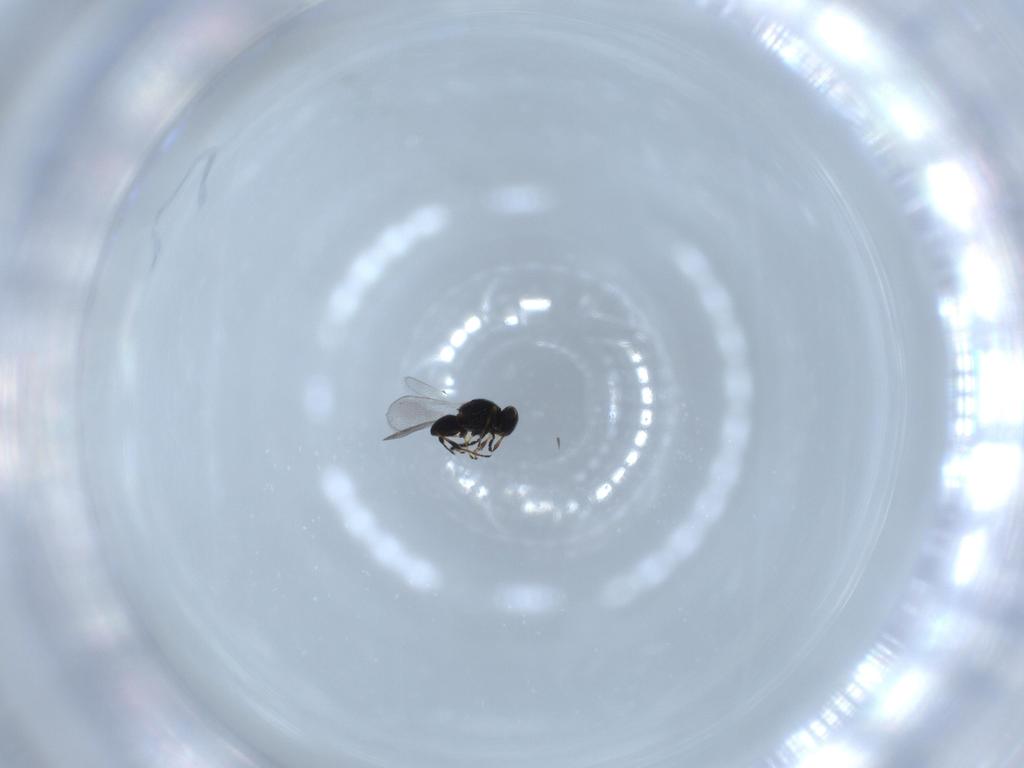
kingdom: Animalia
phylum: Arthropoda
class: Insecta
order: Hymenoptera
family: Platygastridae
